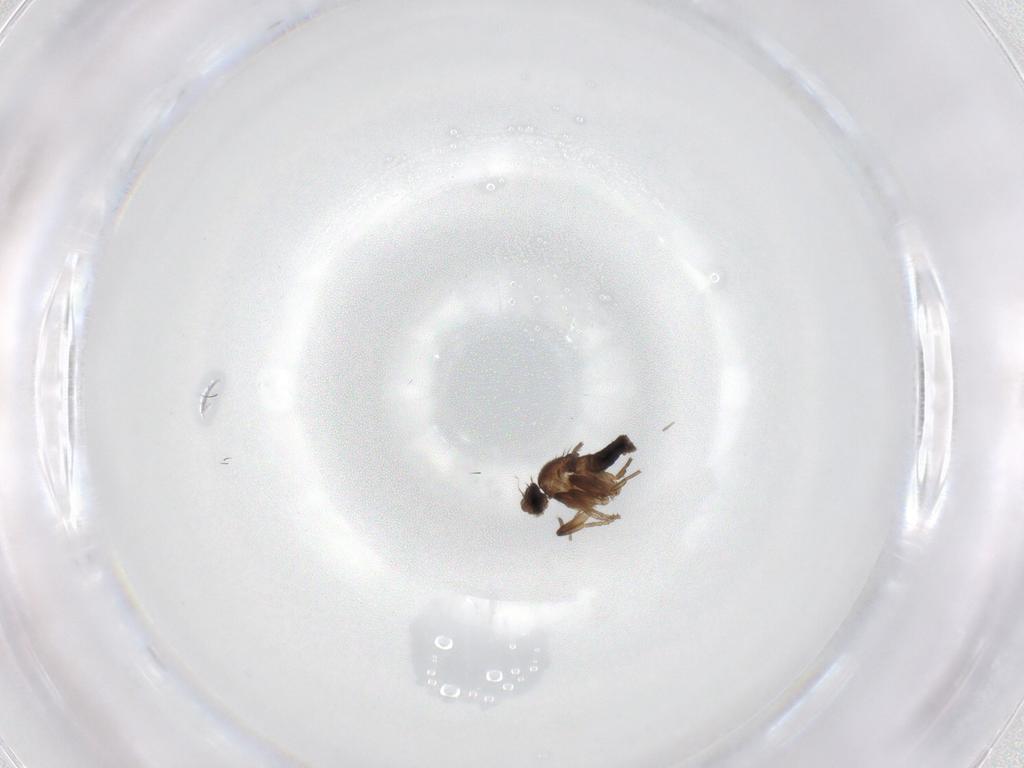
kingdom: Animalia
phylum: Arthropoda
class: Insecta
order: Diptera
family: Phoridae
